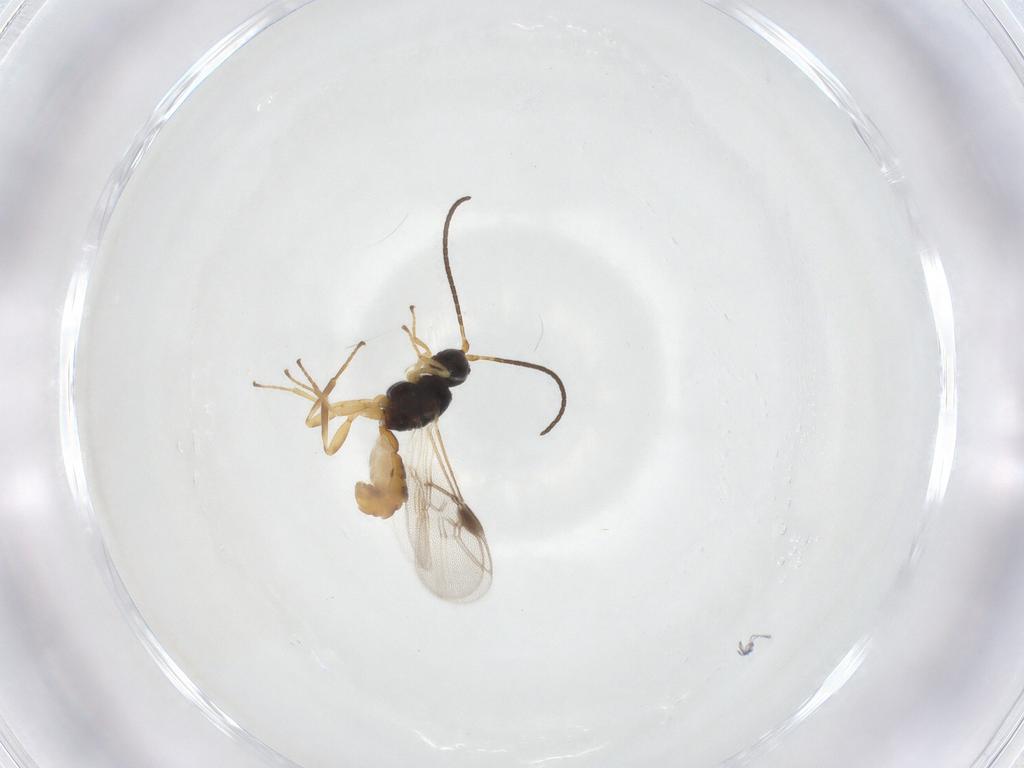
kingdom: Animalia
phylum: Arthropoda
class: Insecta
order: Hymenoptera
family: Braconidae
